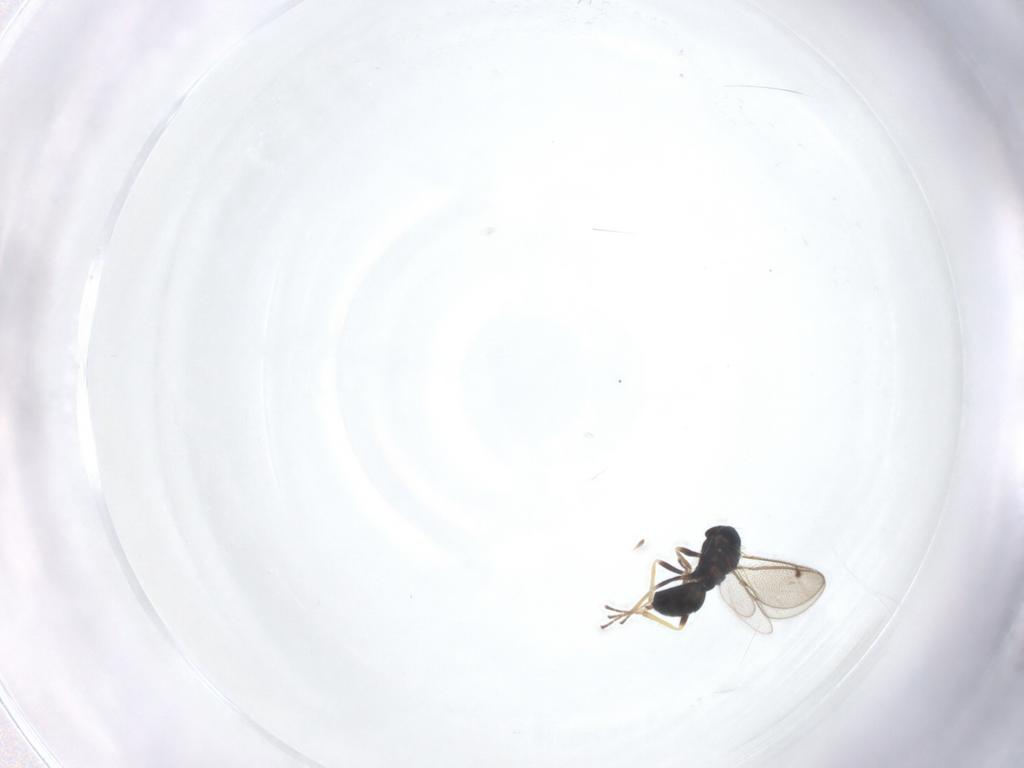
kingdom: Animalia
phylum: Arthropoda
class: Insecta
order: Hymenoptera
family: Eulophidae
